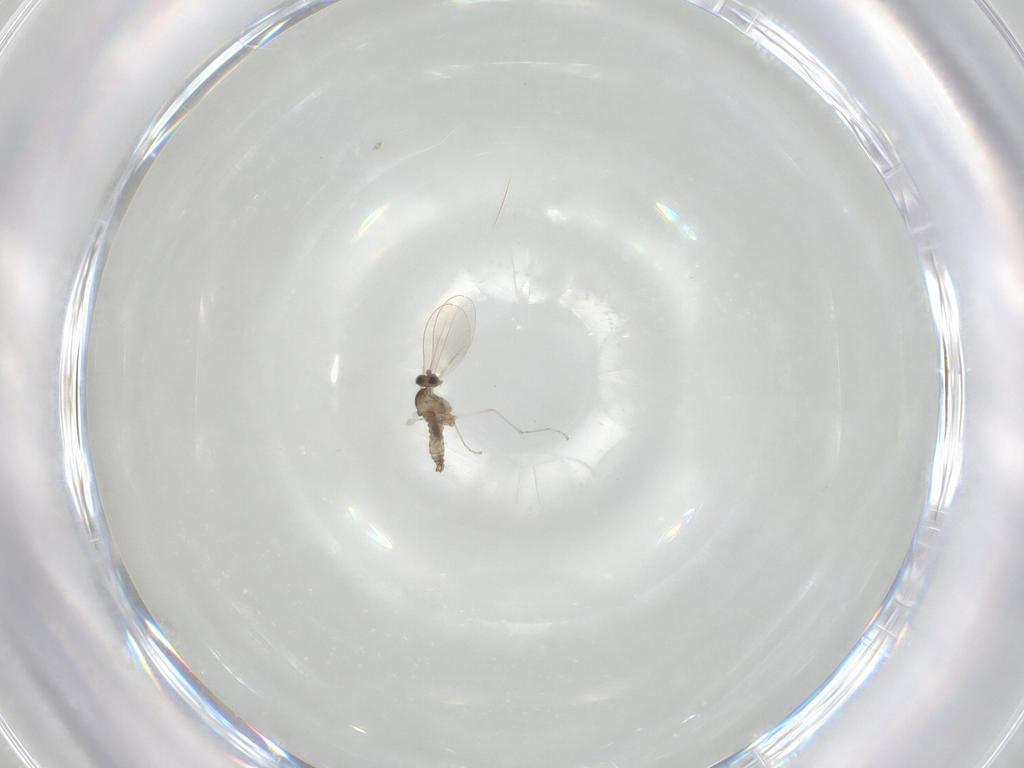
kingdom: Animalia
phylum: Arthropoda
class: Insecta
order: Diptera
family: Cecidomyiidae
